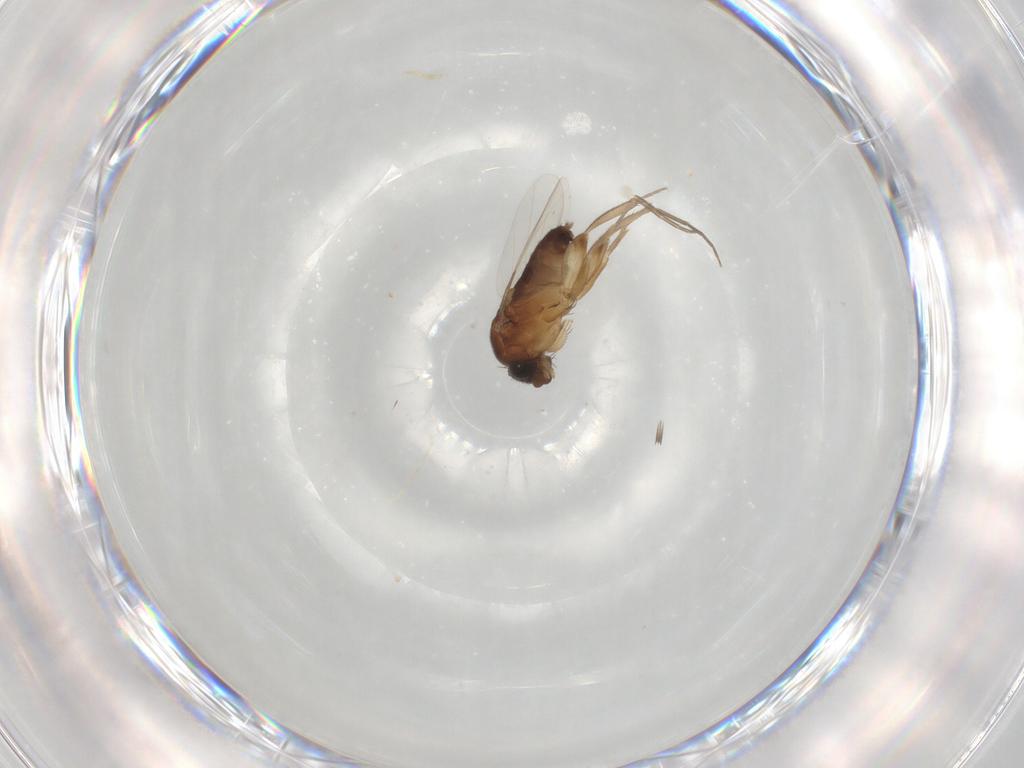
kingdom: Animalia
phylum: Arthropoda
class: Insecta
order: Diptera
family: Phoridae
